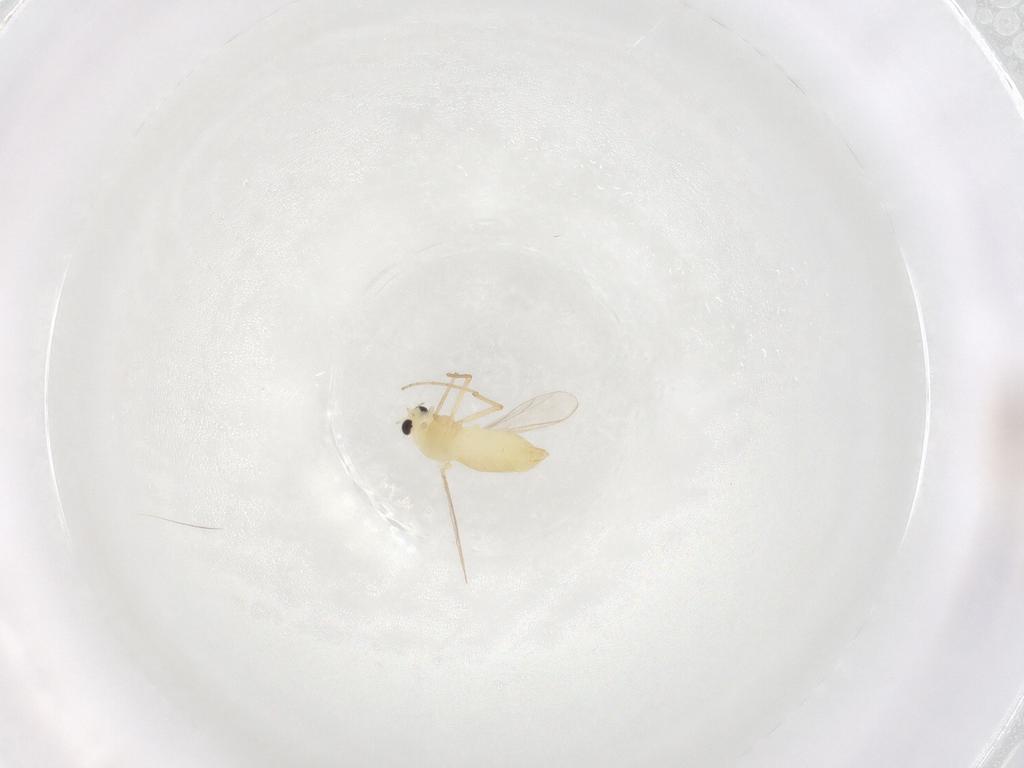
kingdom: Animalia
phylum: Arthropoda
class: Insecta
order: Diptera
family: Chironomidae
